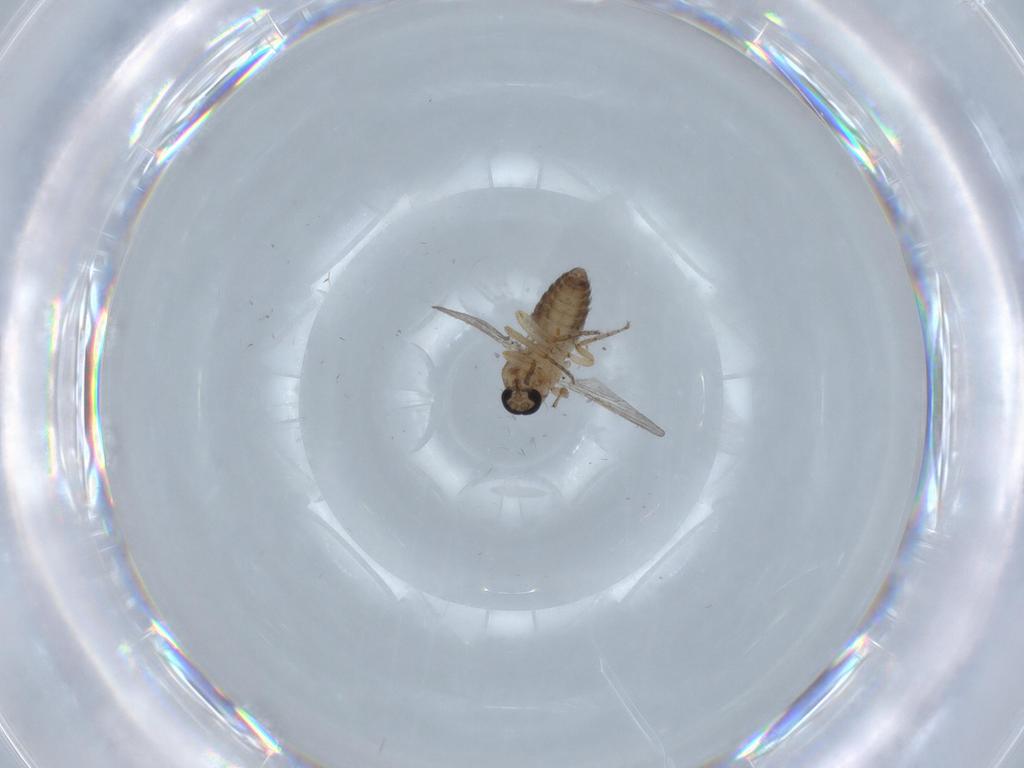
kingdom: Animalia
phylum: Arthropoda
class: Insecta
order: Diptera
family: Ceratopogonidae
